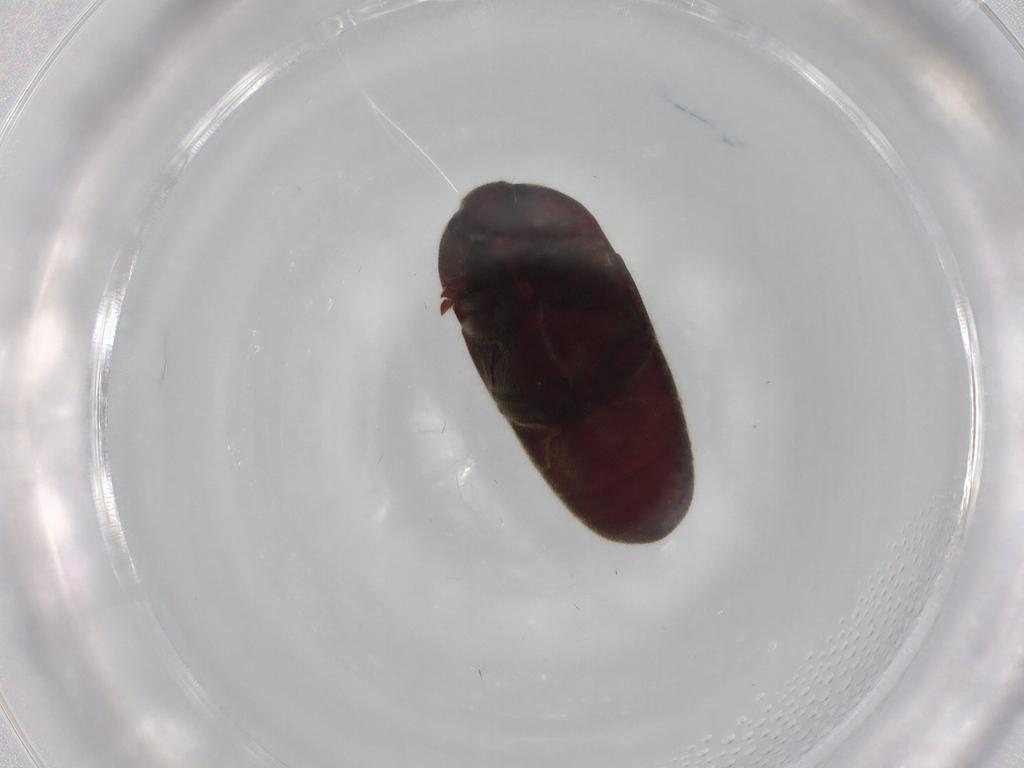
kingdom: Animalia
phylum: Arthropoda
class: Insecta
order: Coleoptera
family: Throscidae
